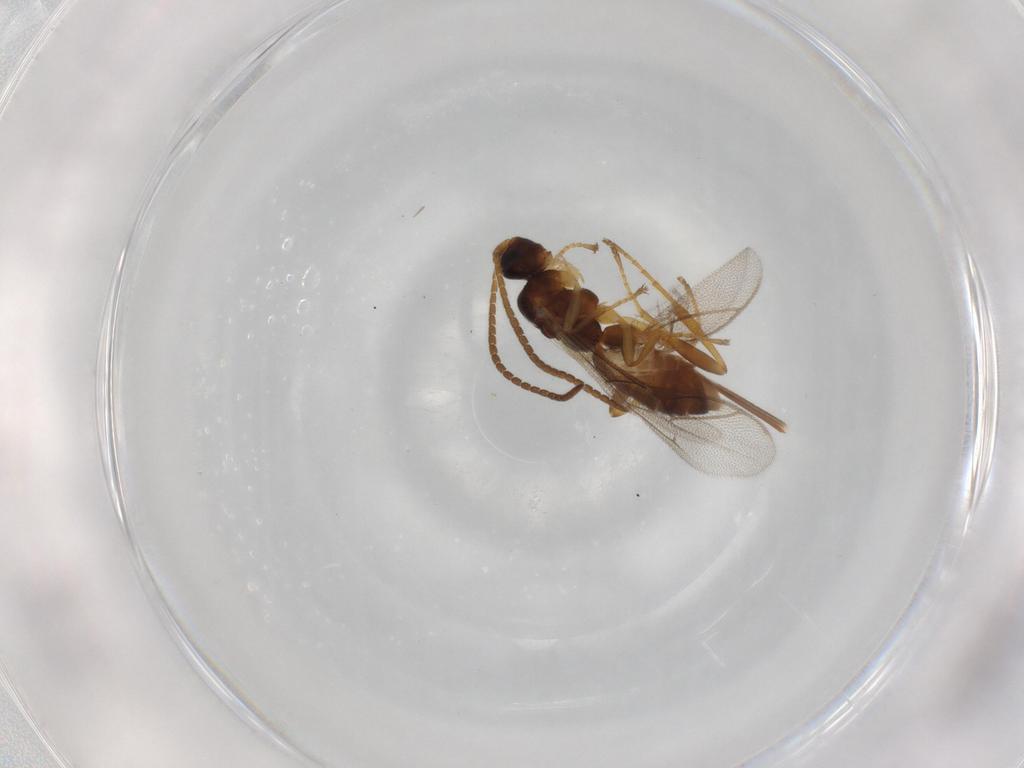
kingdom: Animalia
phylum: Arthropoda
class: Insecta
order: Hymenoptera
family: Ichneumonidae
